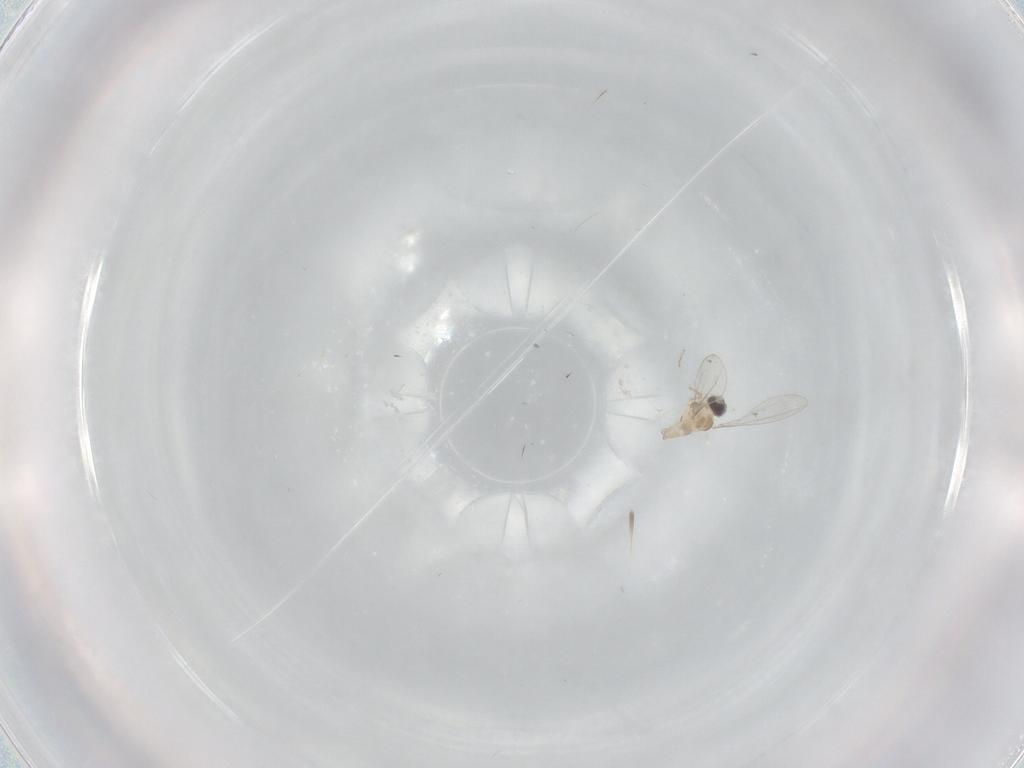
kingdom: Animalia
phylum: Arthropoda
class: Insecta
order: Diptera
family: Cecidomyiidae
